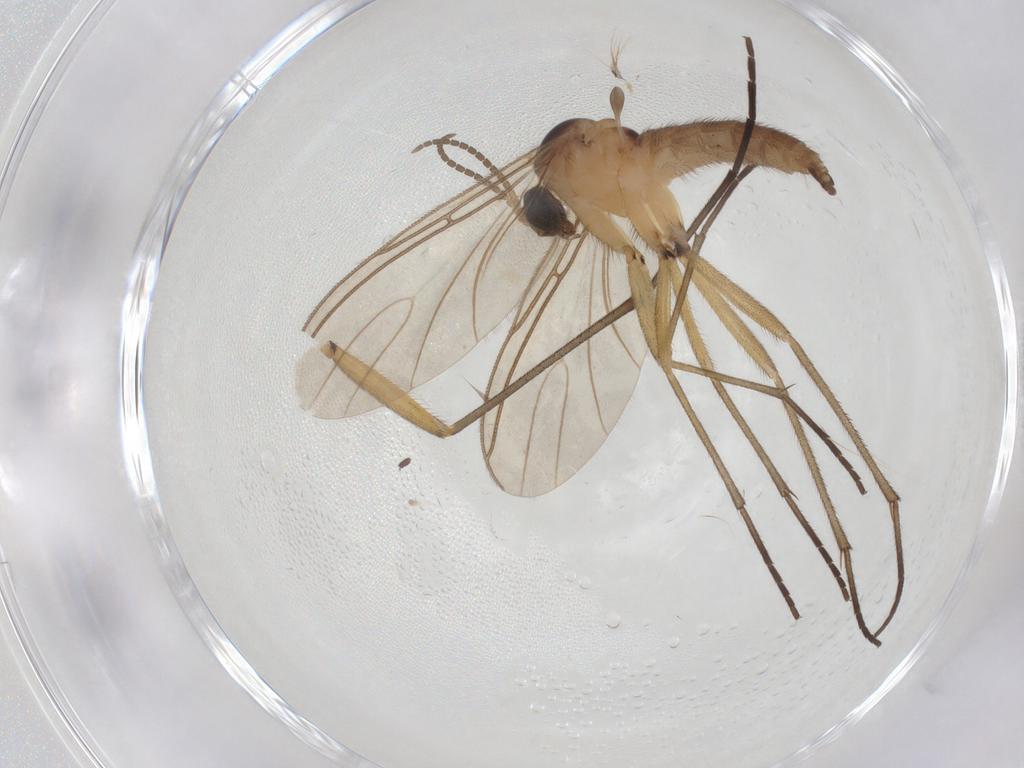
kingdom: Animalia
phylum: Arthropoda
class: Insecta
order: Diptera
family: Sciaridae
